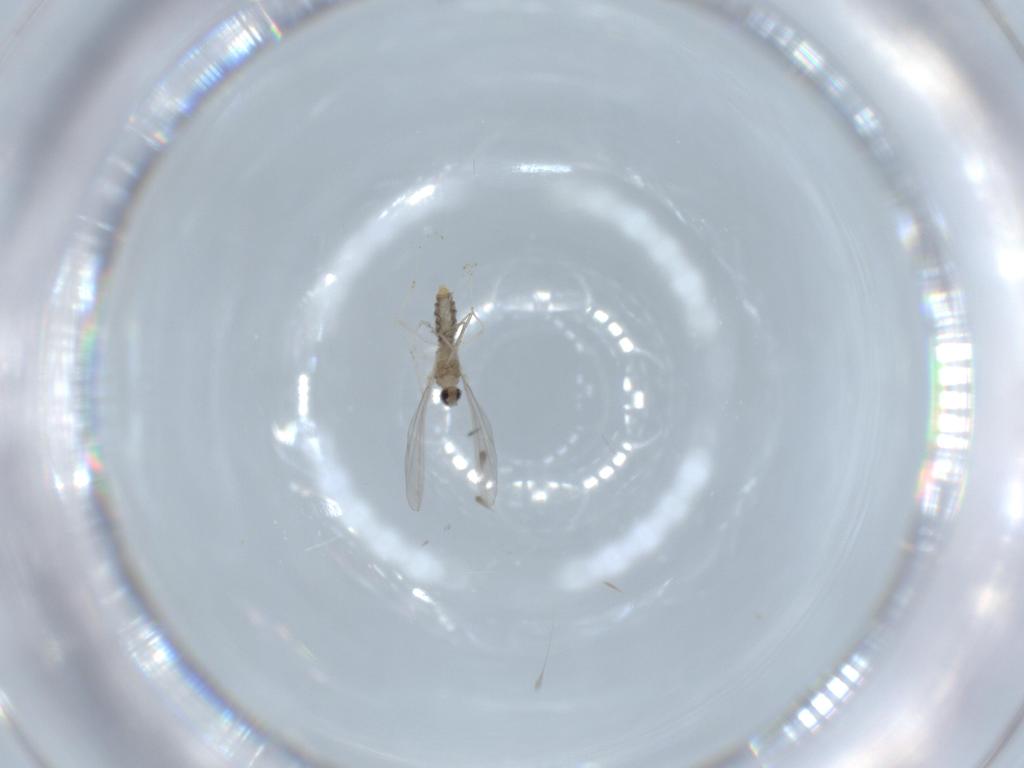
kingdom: Animalia
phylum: Arthropoda
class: Insecta
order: Diptera
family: Cecidomyiidae
